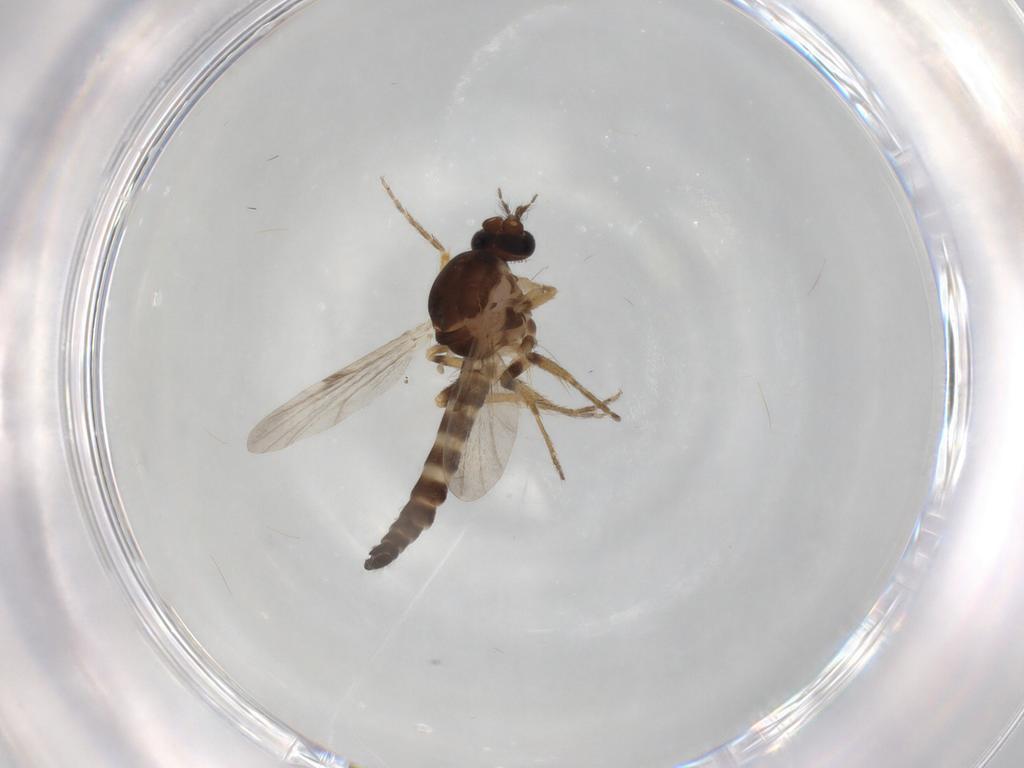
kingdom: Animalia
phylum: Arthropoda
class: Insecta
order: Diptera
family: Ceratopogonidae
